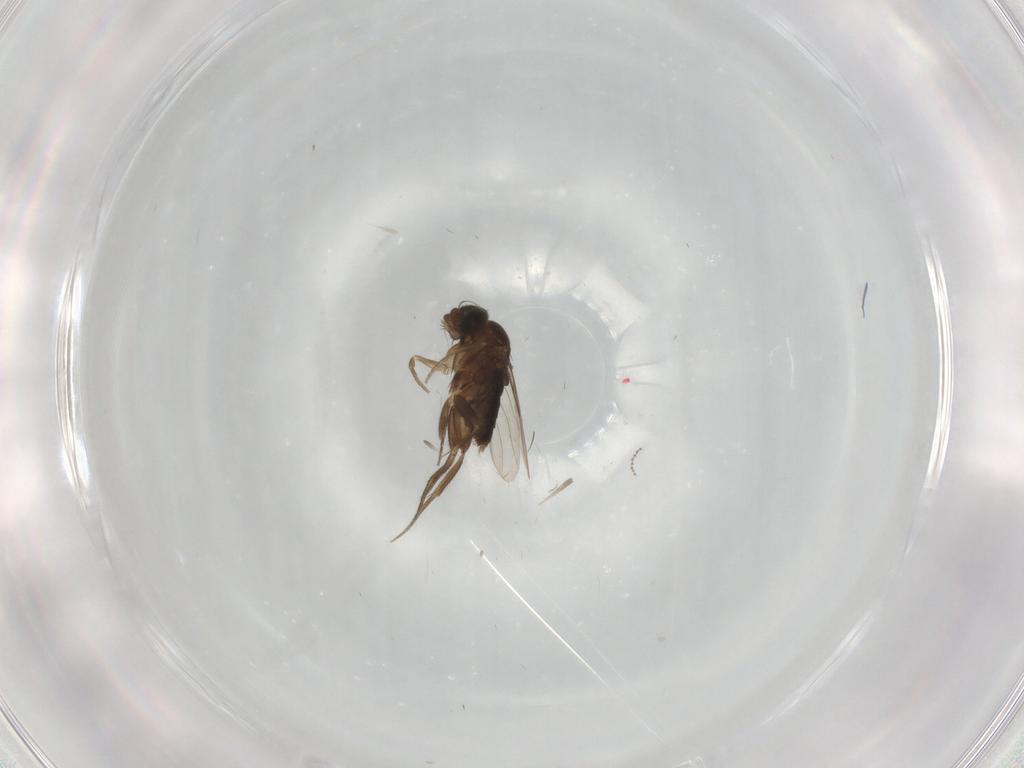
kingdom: Animalia
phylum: Arthropoda
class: Insecta
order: Diptera
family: Phoridae
